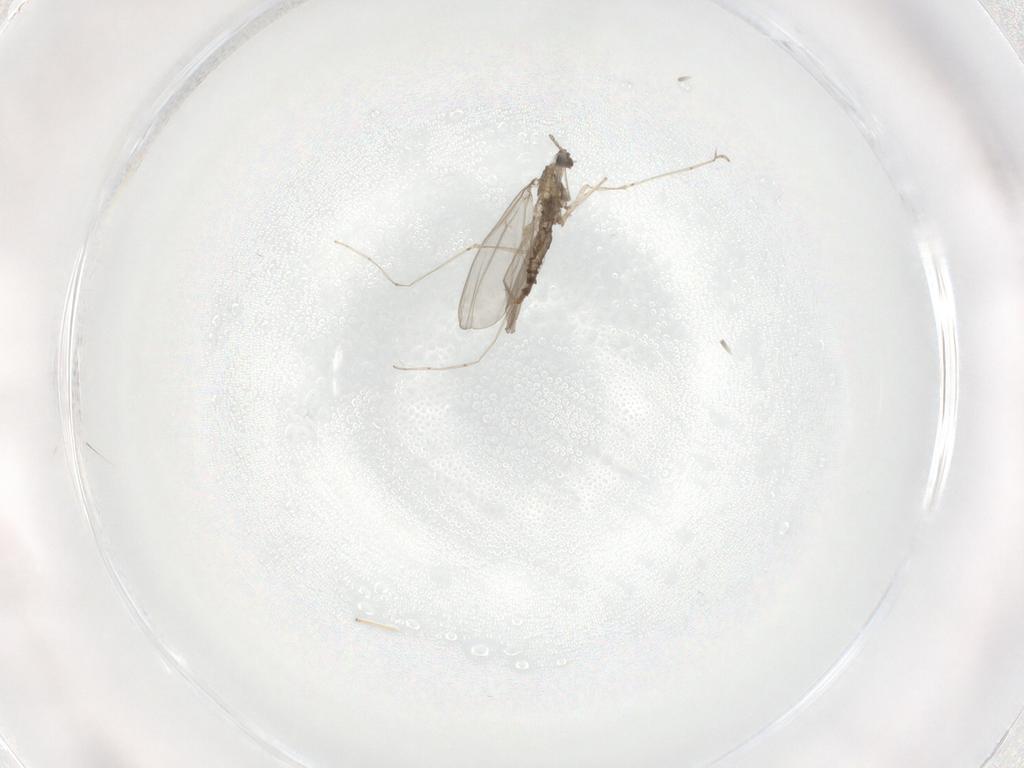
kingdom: Animalia
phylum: Arthropoda
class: Insecta
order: Diptera
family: Cecidomyiidae
